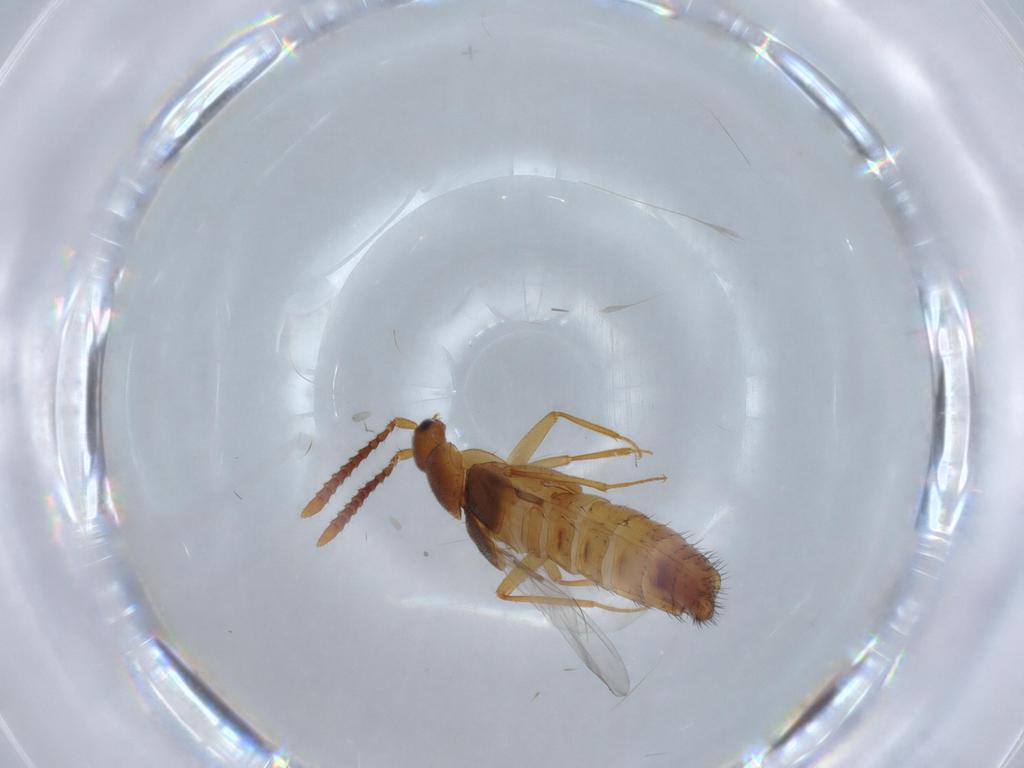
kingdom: Animalia
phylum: Arthropoda
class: Insecta
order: Coleoptera
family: Staphylinidae
